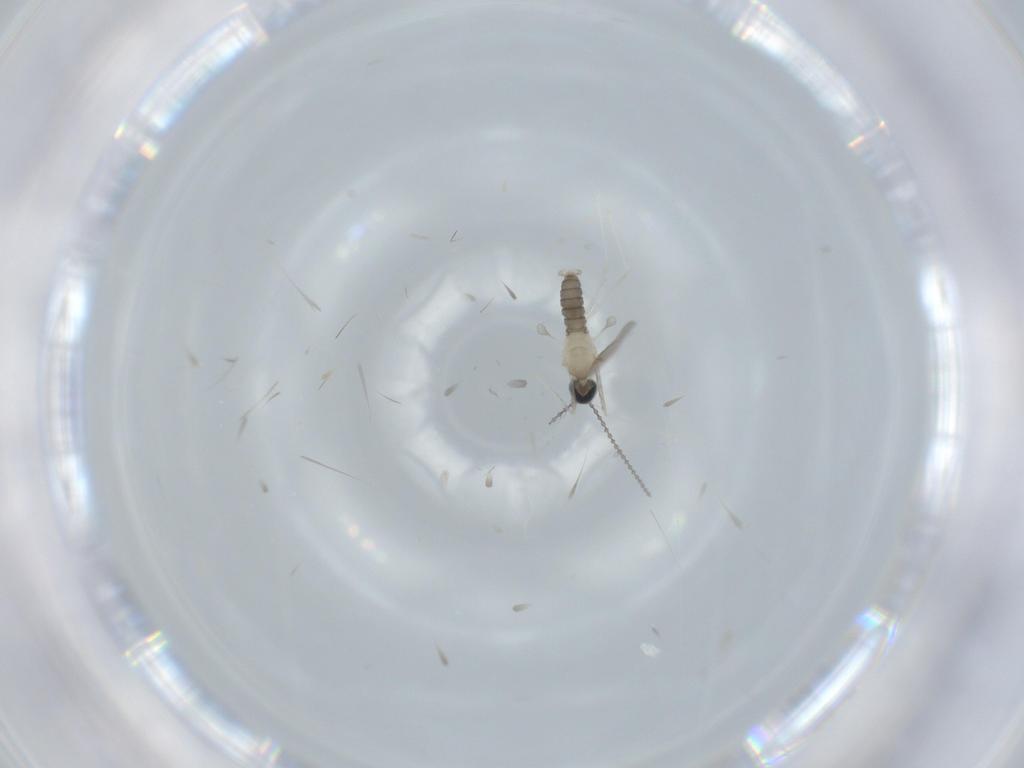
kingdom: Animalia
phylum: Arthropoda
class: Insecta
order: Diptera
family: Cecidomyiidae
